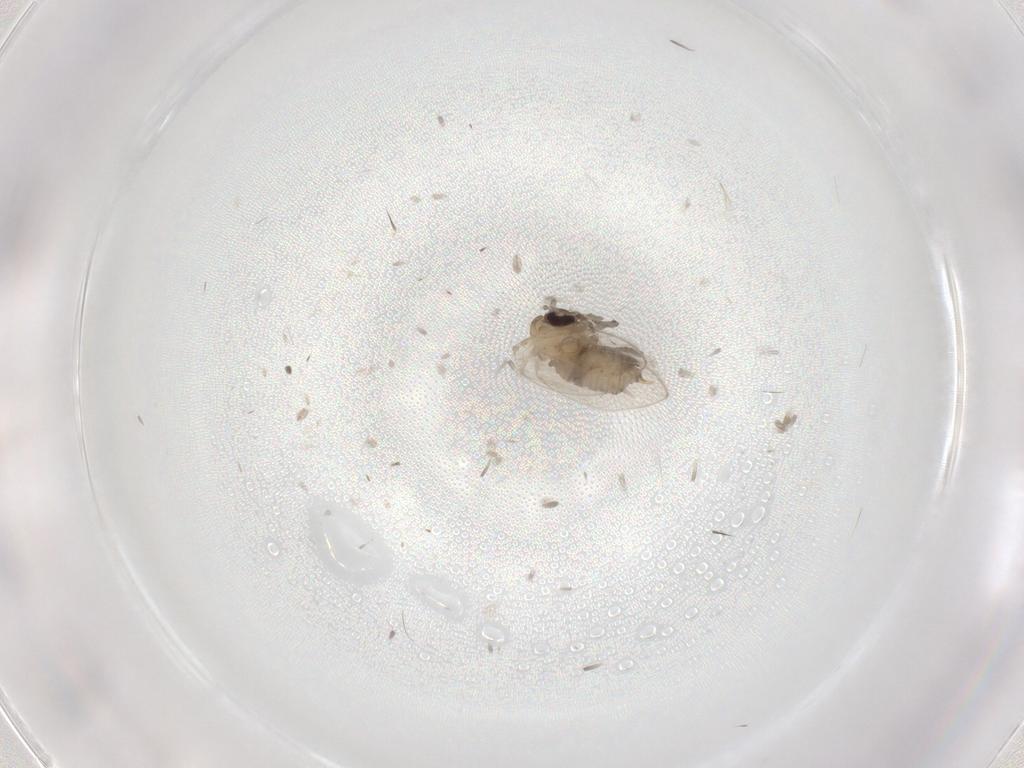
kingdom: Animalia
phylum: Arthropoda
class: Insecta
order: Diptera
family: Psychodidae
